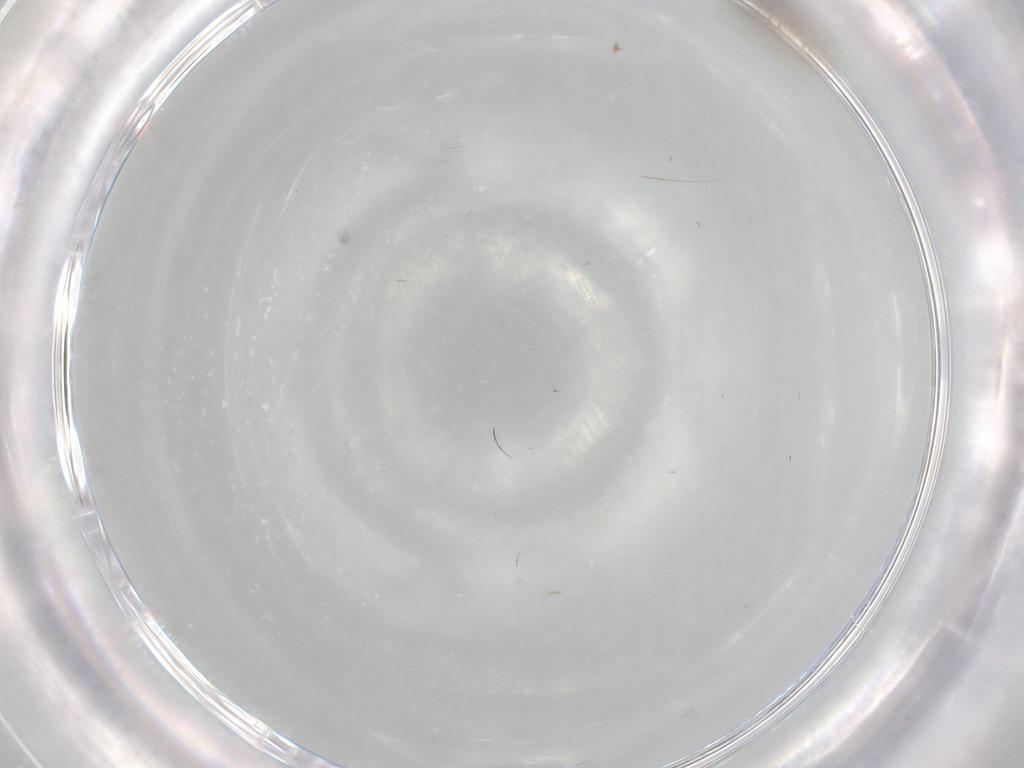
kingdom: Animalia
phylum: Arthropoda
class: Insecta
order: Diptera
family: Cecidomyiidae
